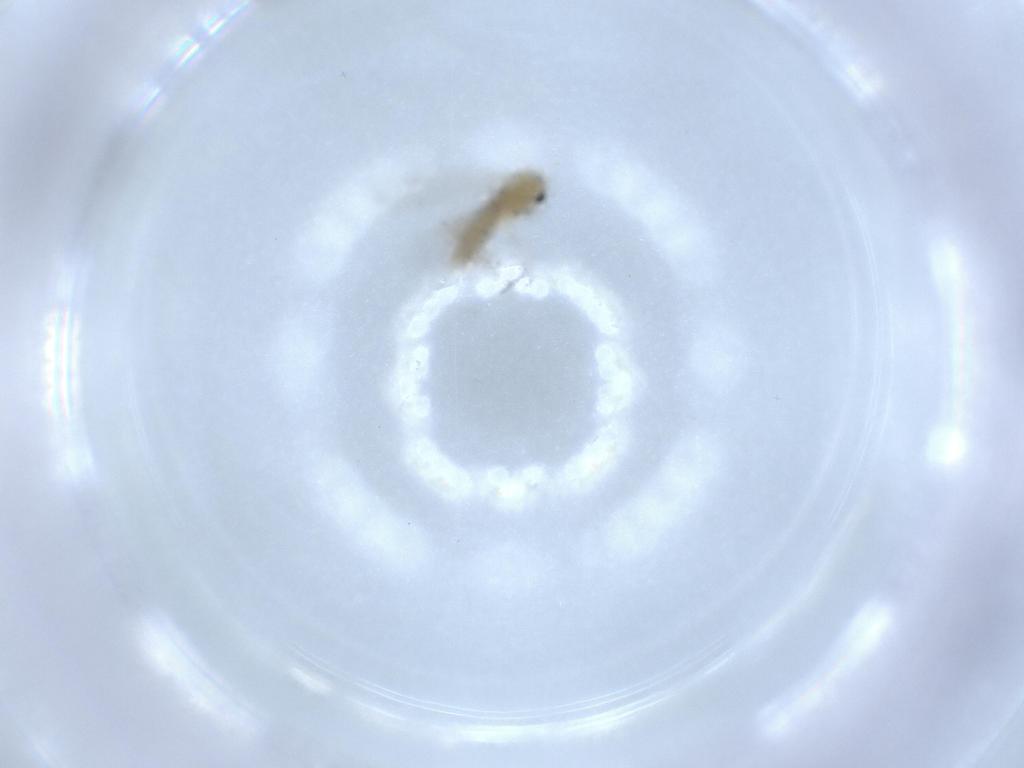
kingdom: Animalia
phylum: Arthropoda
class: Insecta
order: Diptera
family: Chironomidae
